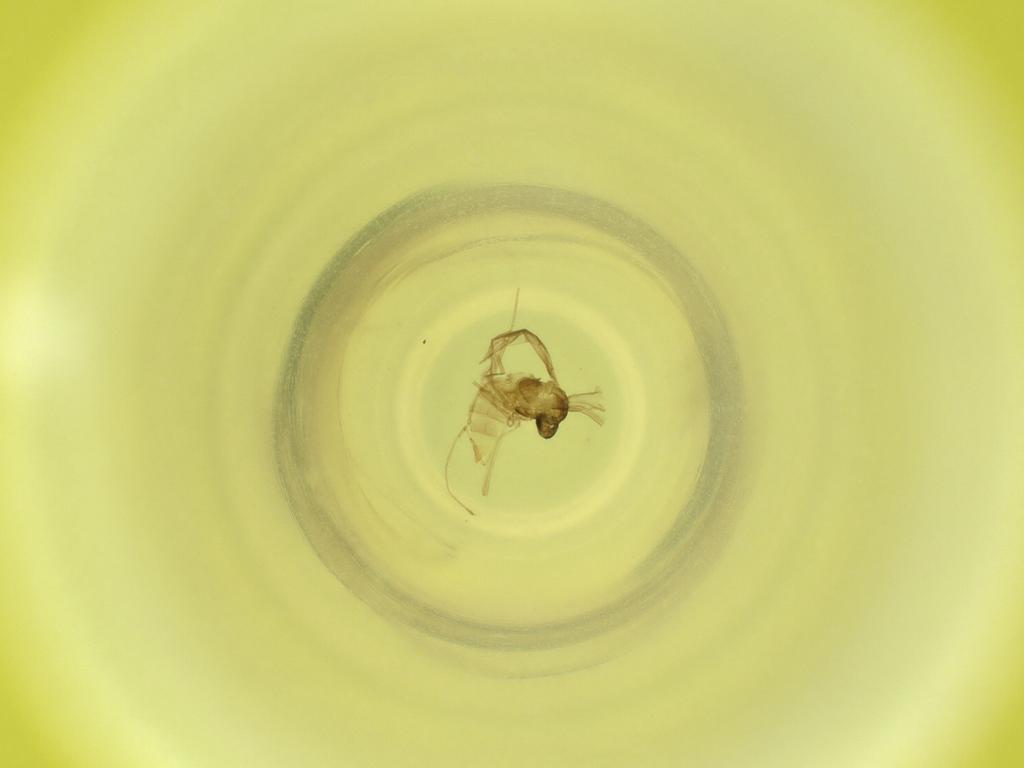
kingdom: Animalia
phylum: Arthropoda
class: Insecta
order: Diptera
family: Cecidomyiidae
